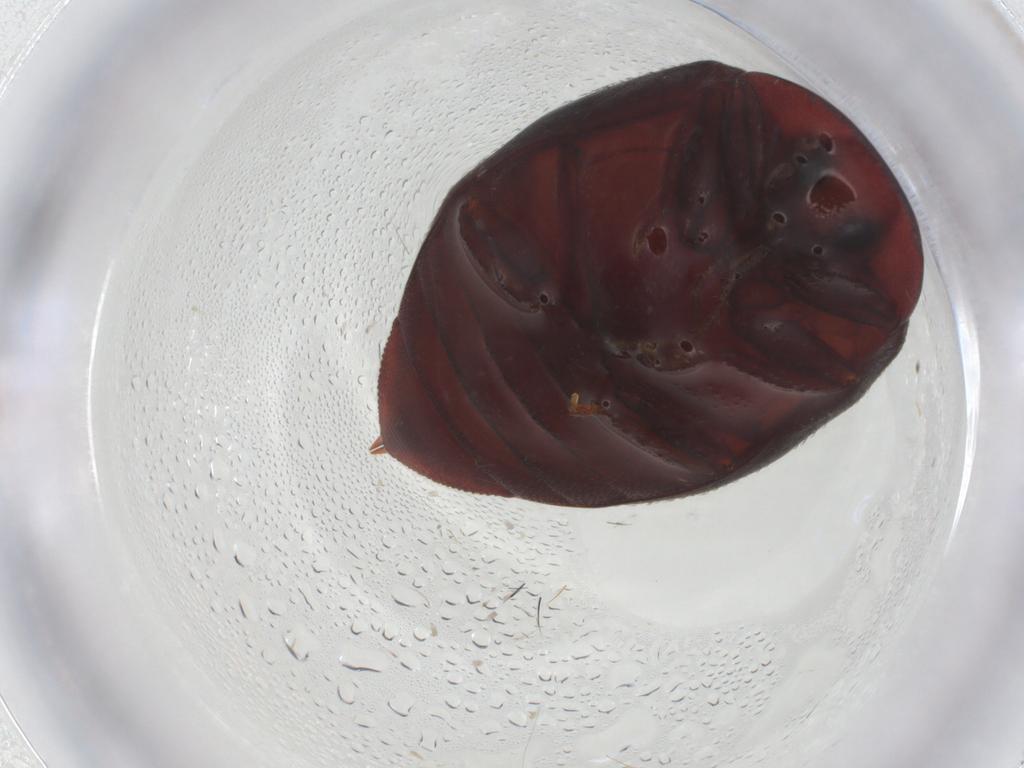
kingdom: Animalia
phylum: Arthropoda
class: Insecta
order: Coleoptera
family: Chelonariidae
